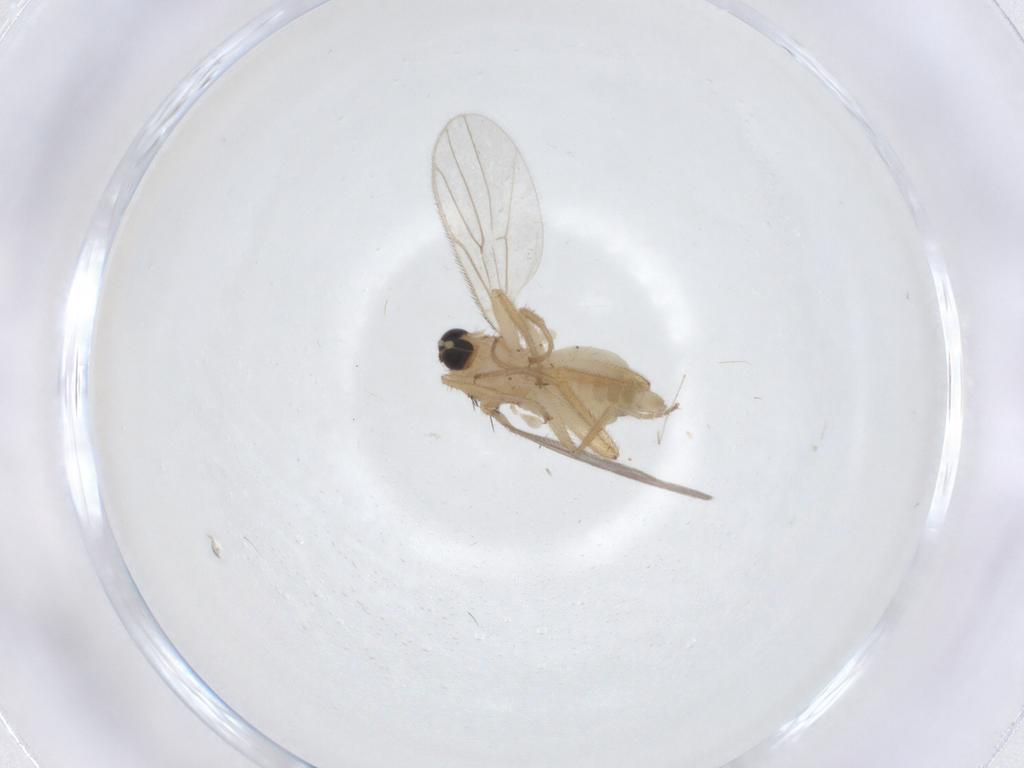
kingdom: Animalia
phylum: Arthropoda
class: Insecta
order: Diptera
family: Hybotidae
